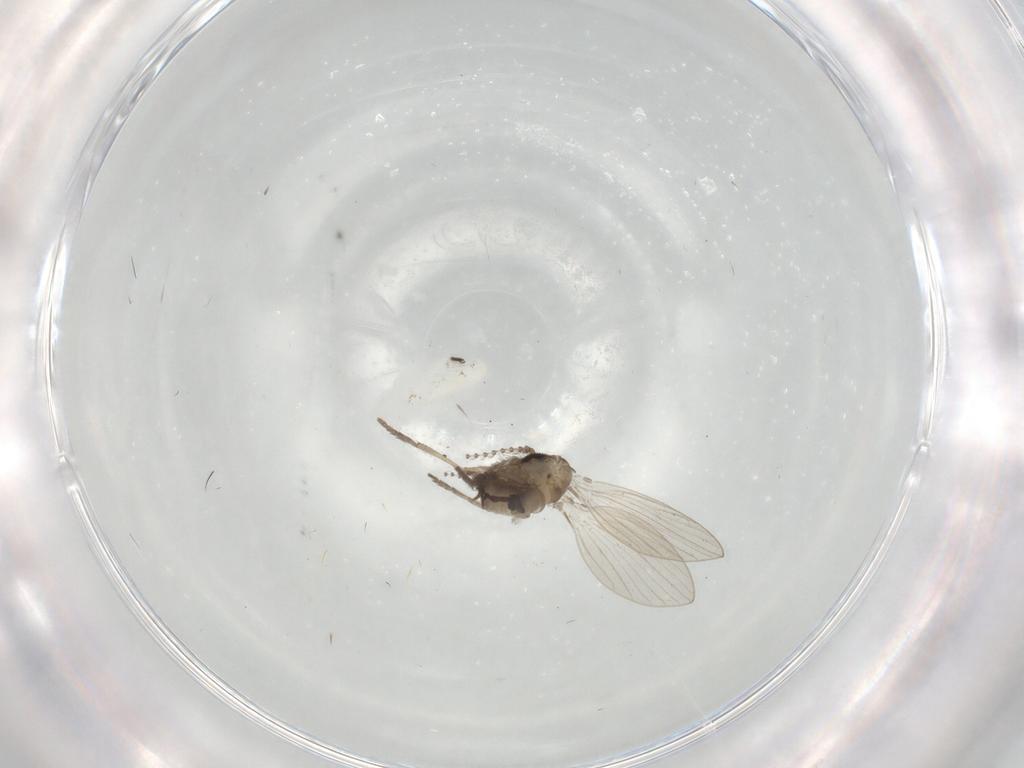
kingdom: Animalia
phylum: Arthropoda
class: Insecta
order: Diptera
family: Psychodidae
